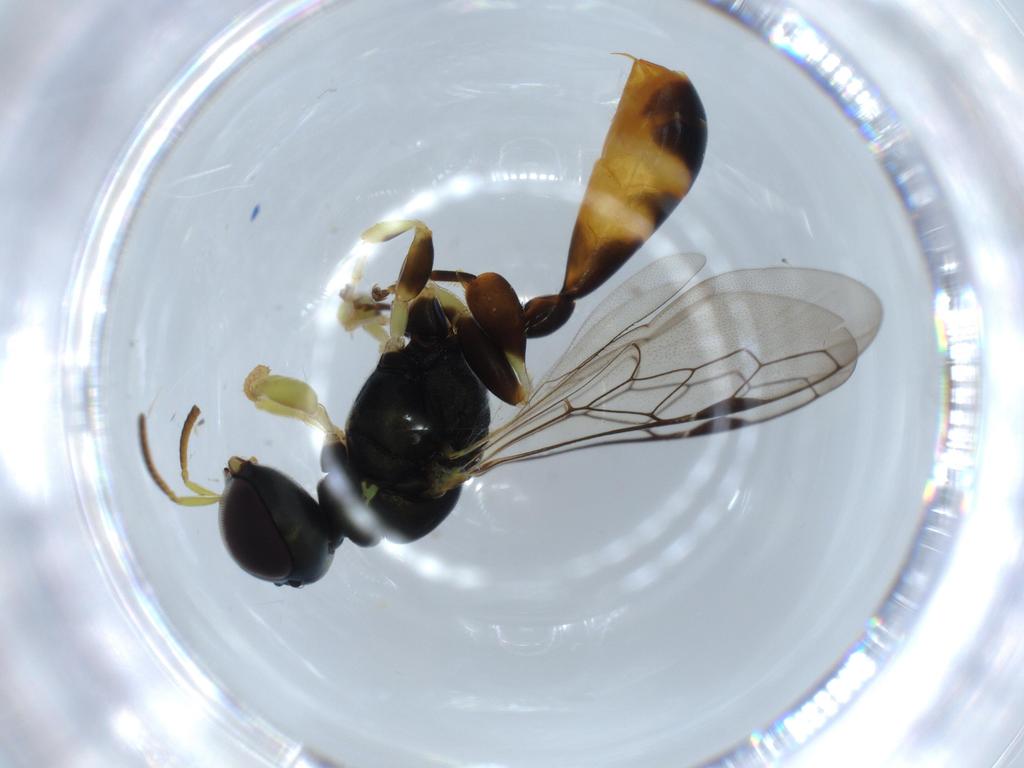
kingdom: Animalia
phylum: Arthropoda
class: Insecta
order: Hymenoptera
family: Crabronidae
